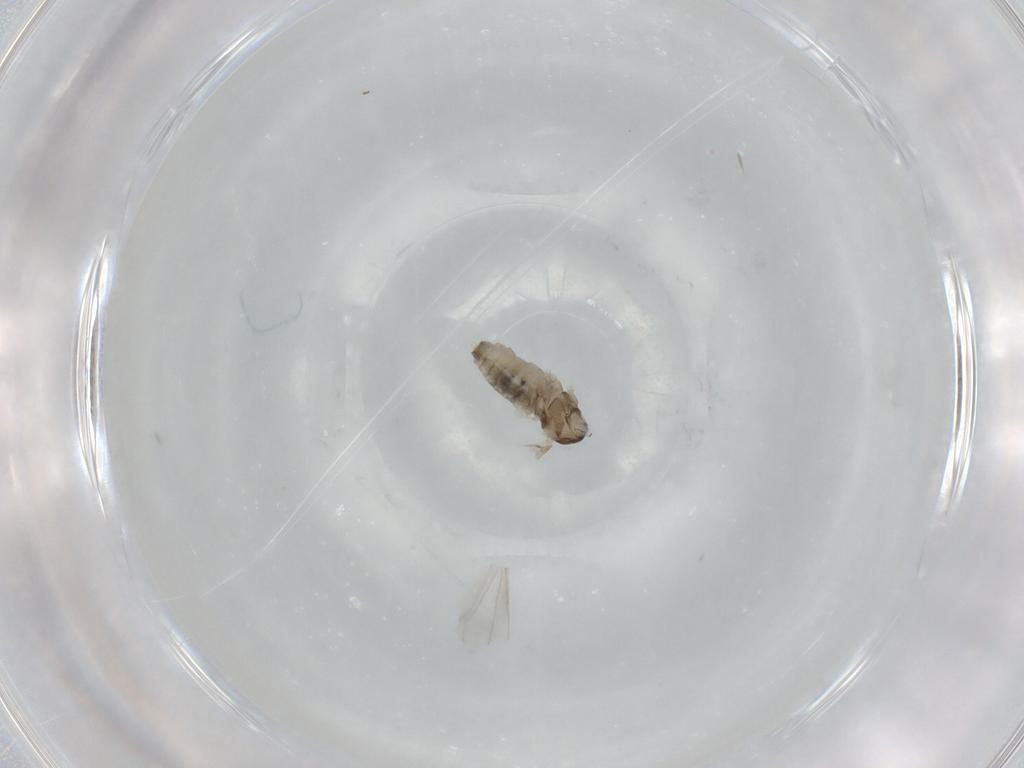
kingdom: Animalia
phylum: Arthropoda
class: Insecta
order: Diptera
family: Cecidomyiidae
